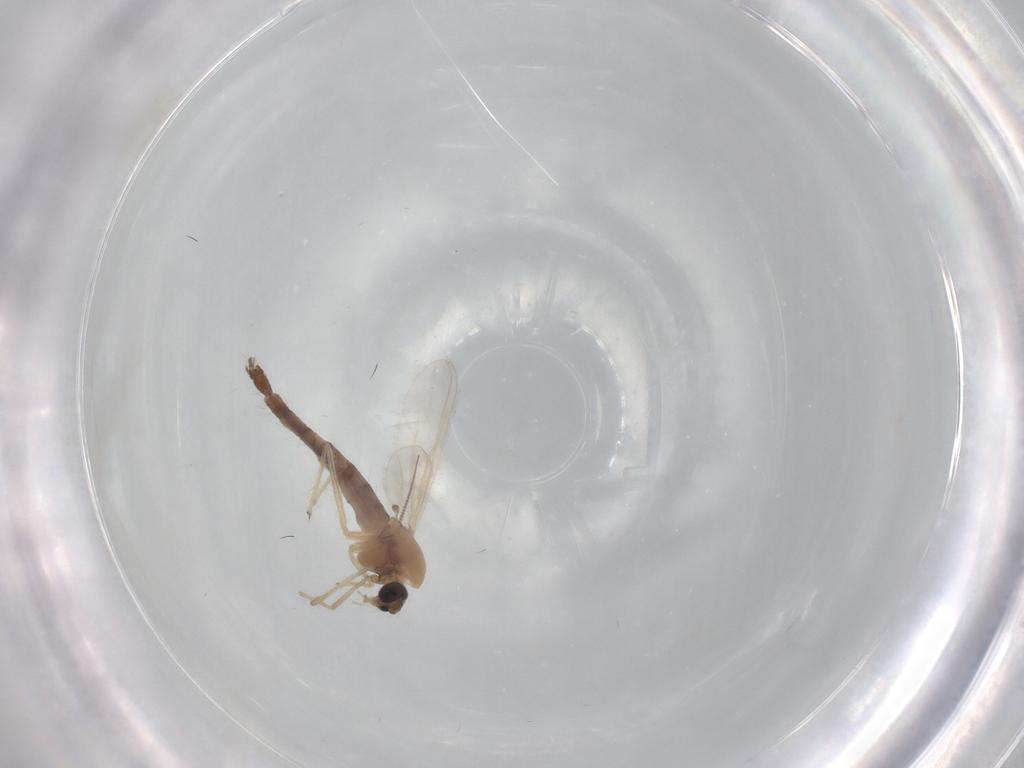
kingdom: Animalia
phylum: Arthropoda
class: Insecta
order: Diptera
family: Chironomidae
